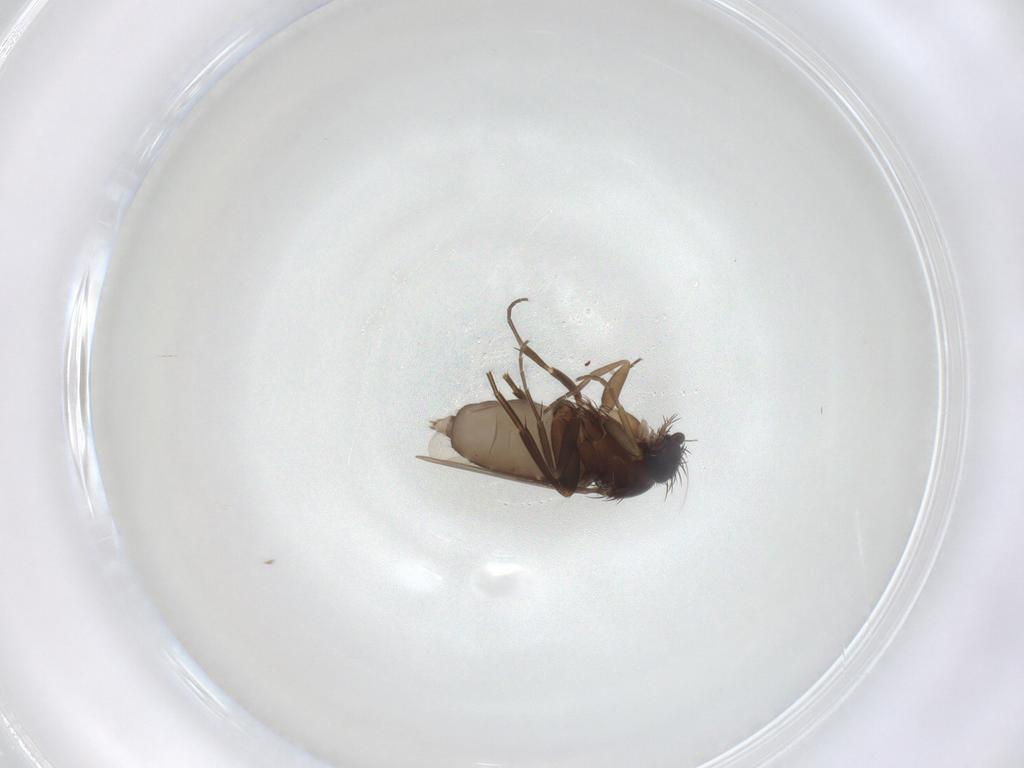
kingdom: Animalia
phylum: Arthropoda
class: Insecta
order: Diptera
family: Phoridae
